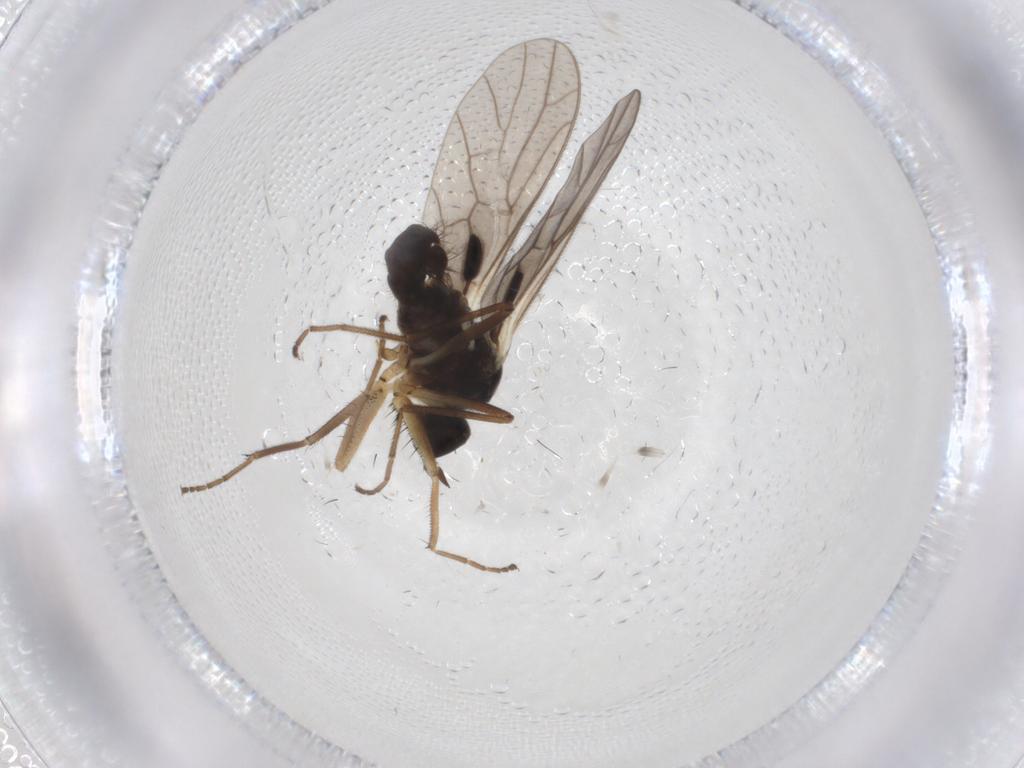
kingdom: Animalia
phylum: Arthropoda
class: Insecta
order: Diptera
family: Empididae
